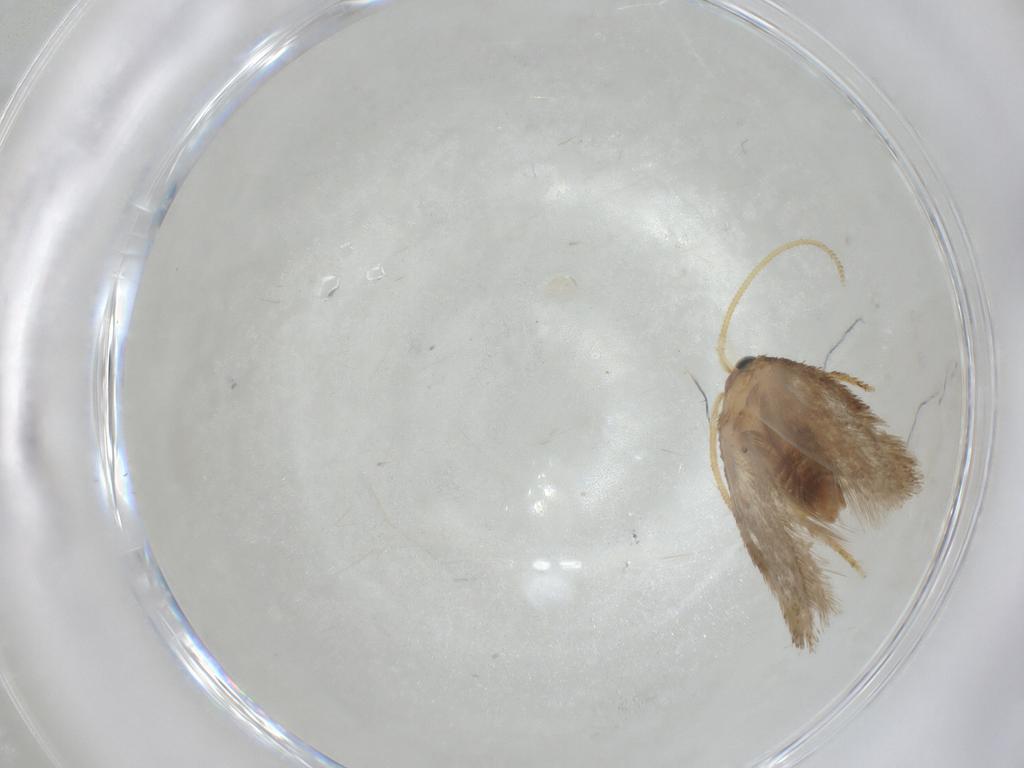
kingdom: Animalia
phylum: Arthropoda
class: Insecta
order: Lepidoptera
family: Nepticulidae
